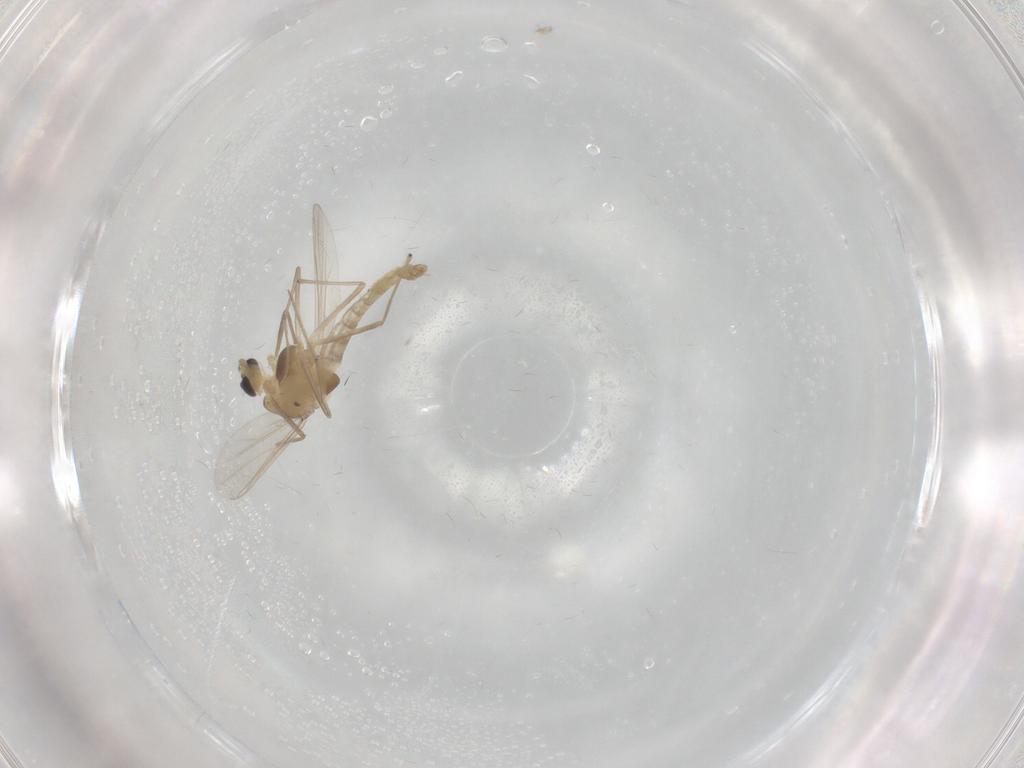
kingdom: Animalia
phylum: Arthropoda
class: Insecta
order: Diptera
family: Chironomidae
